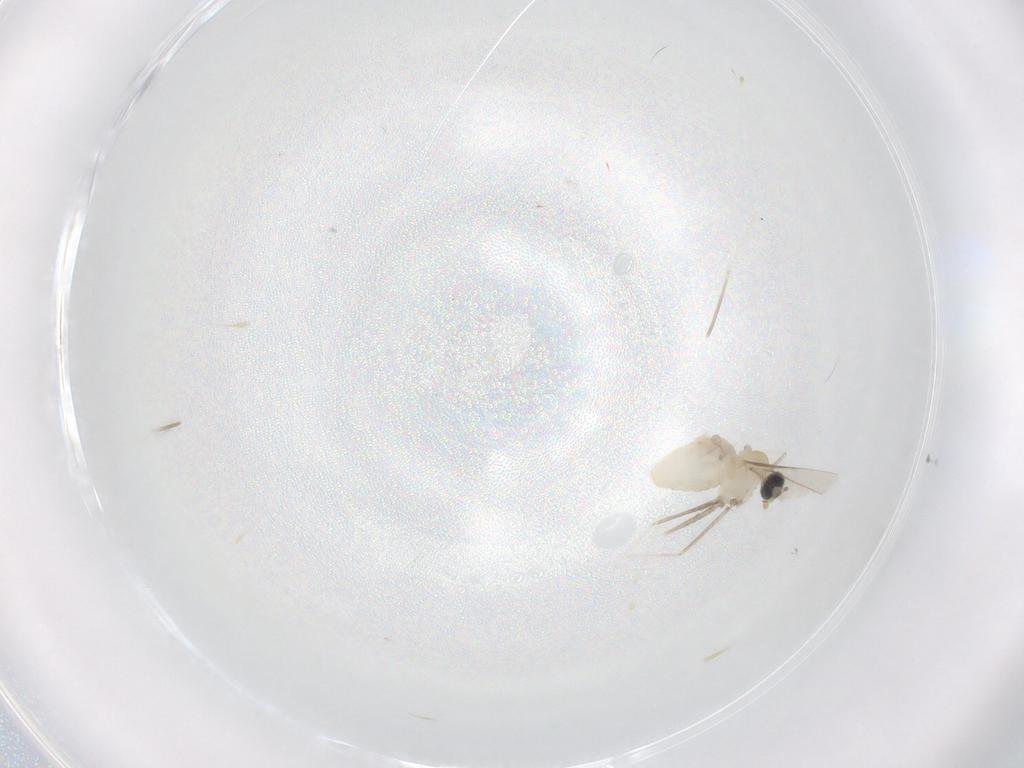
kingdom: Animalia
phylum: Arthropoda
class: Insecta
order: Diptera
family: Cecidomyiidae
